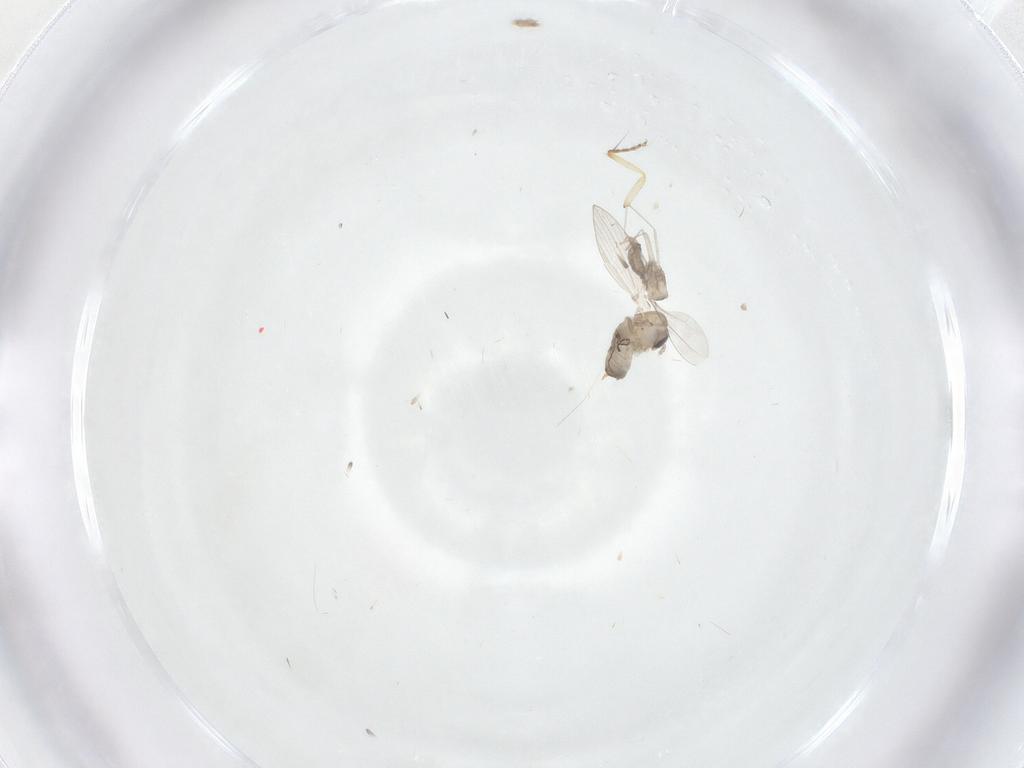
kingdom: Animalia
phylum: Arthropoda
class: Insecta
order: Diptera
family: Psychodidae
